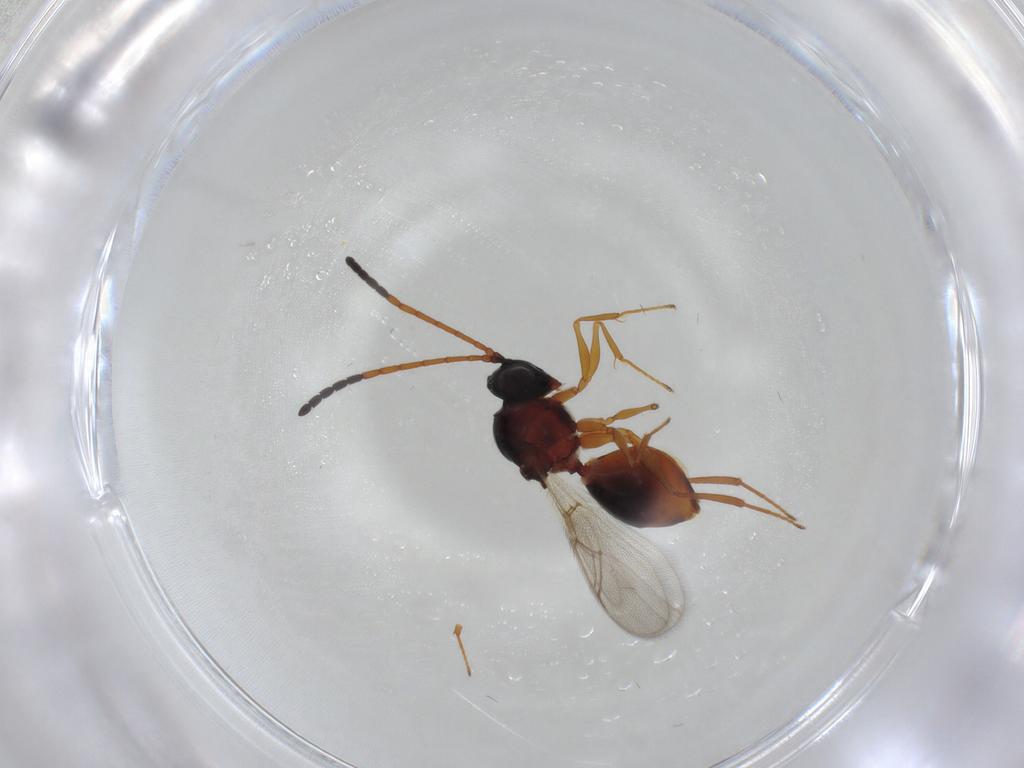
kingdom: Animalia
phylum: Arthropoda
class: Insecta
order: Hymenoptera
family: Figitidae
